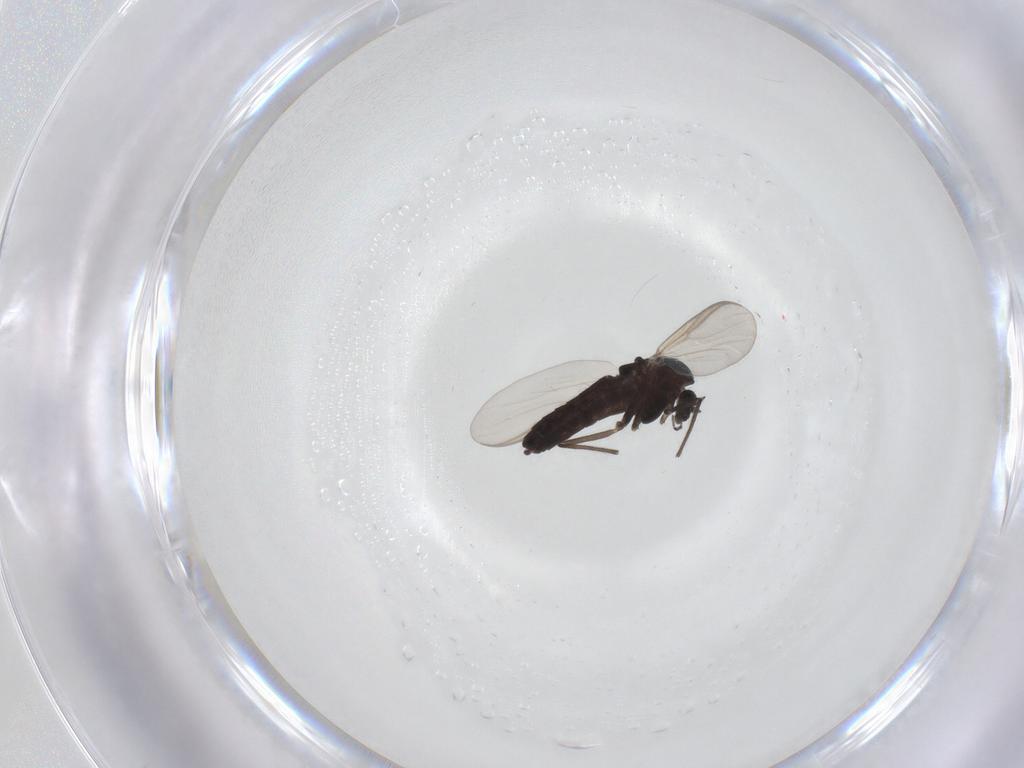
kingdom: Animalia
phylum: Arthropoda
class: Insecta
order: Diptera
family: Chironomidae
